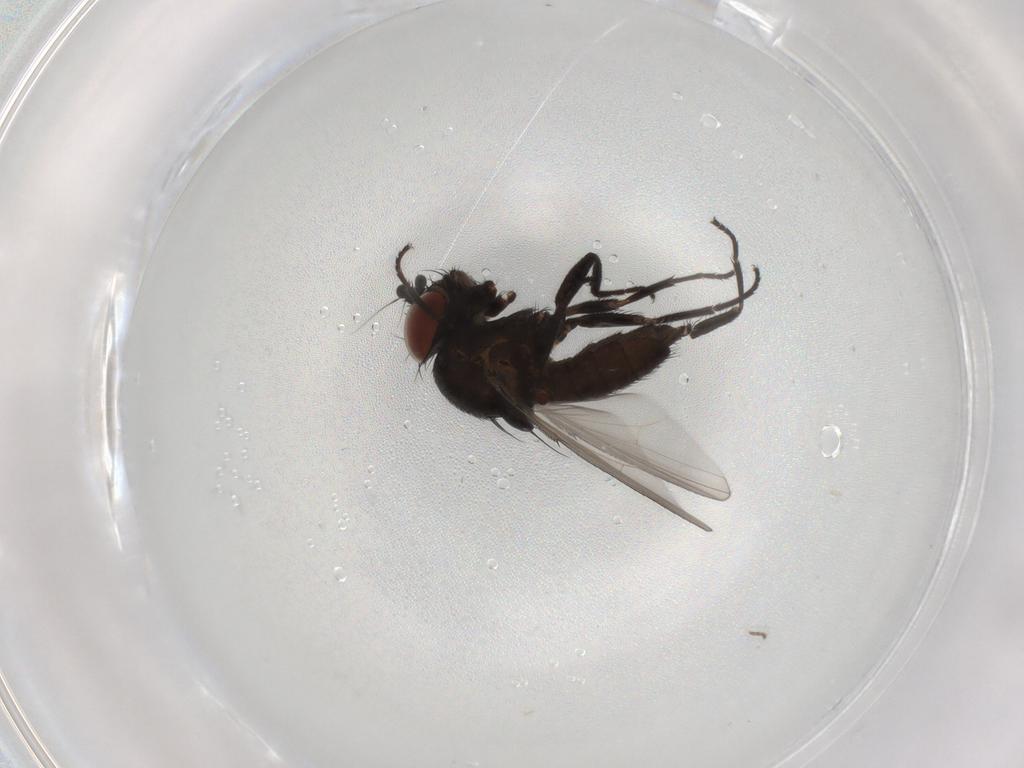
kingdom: Animalia
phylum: Arthropoda
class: Insecta
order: Diptera
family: Milichiidae
